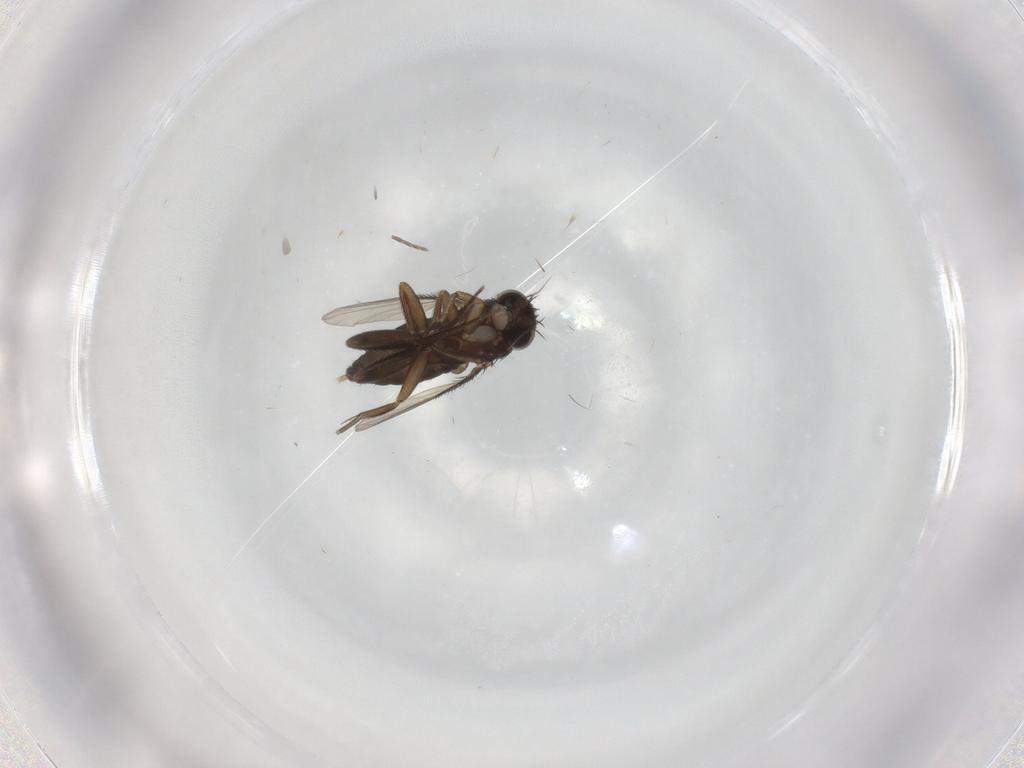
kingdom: Animalia
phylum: Arthropoda
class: Insecta
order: Diptera
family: Phoridae
